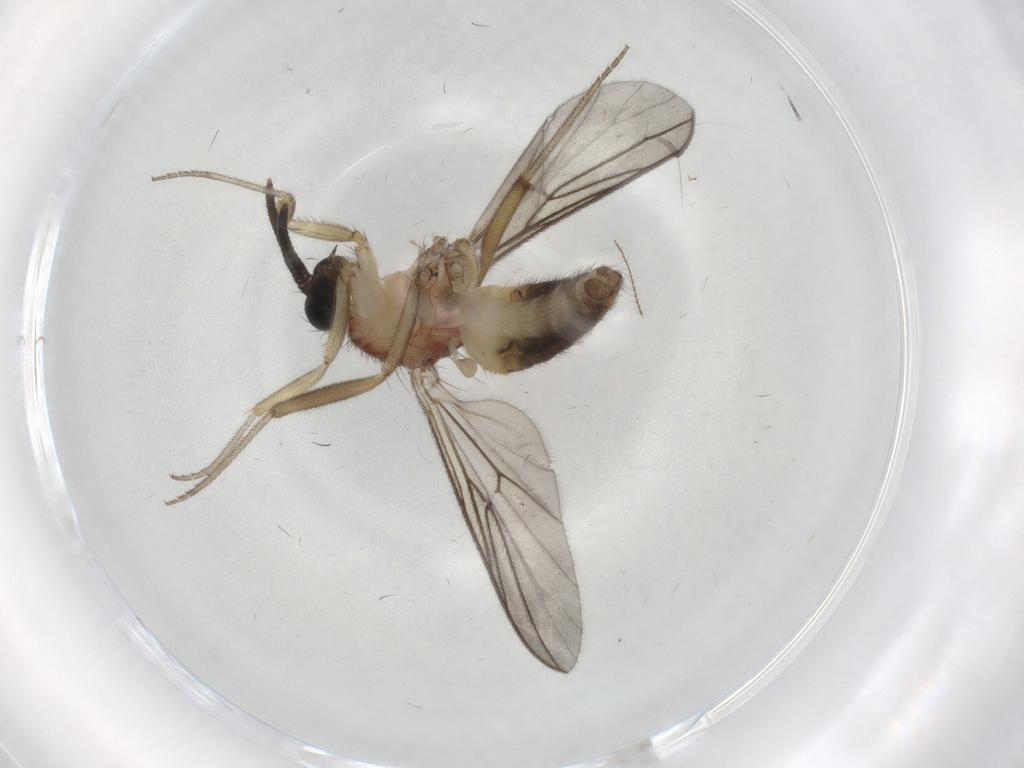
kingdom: Animalia
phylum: Arthropoda
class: Insecta
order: Diptera
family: Anisopodidae
